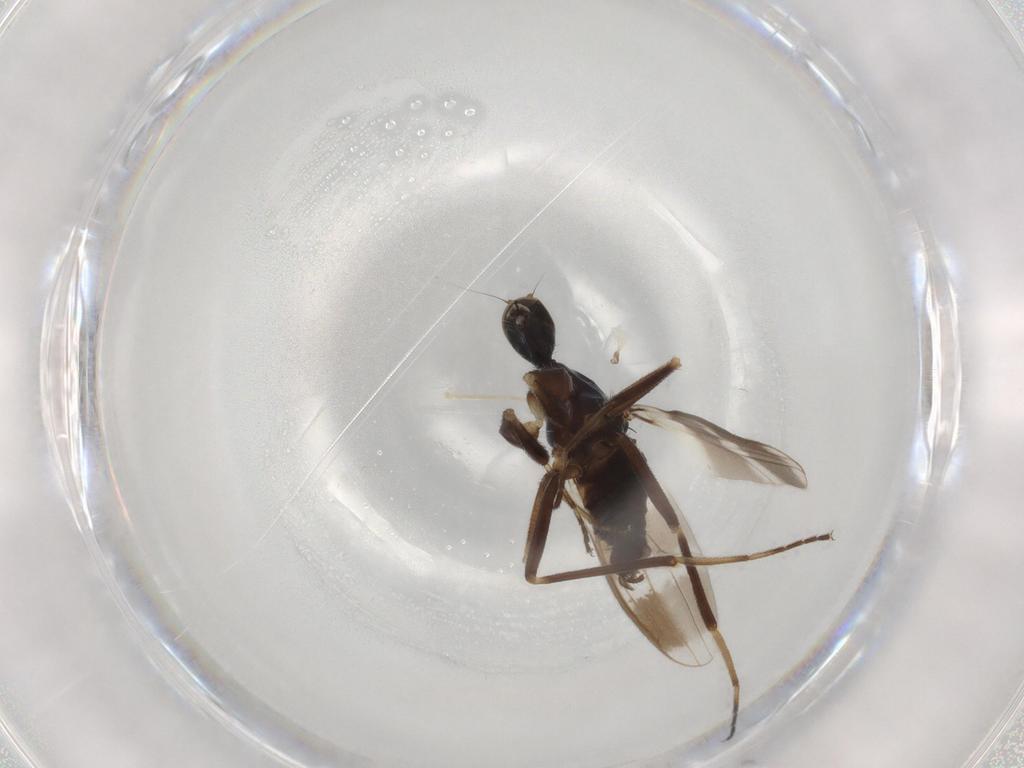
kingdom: Animalia
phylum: Arthropoda
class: Insecta
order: Diptera
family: Hybotidae
